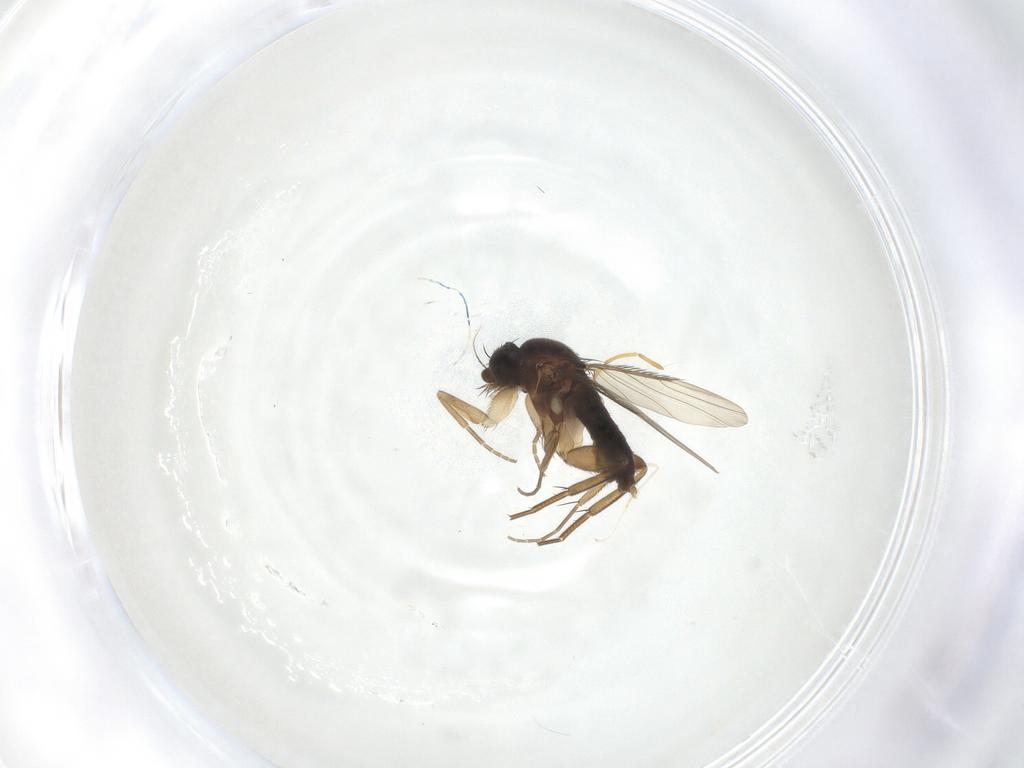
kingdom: Animalia
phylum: Arthropoda
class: Insecta
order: Diptera
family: Phoridae
